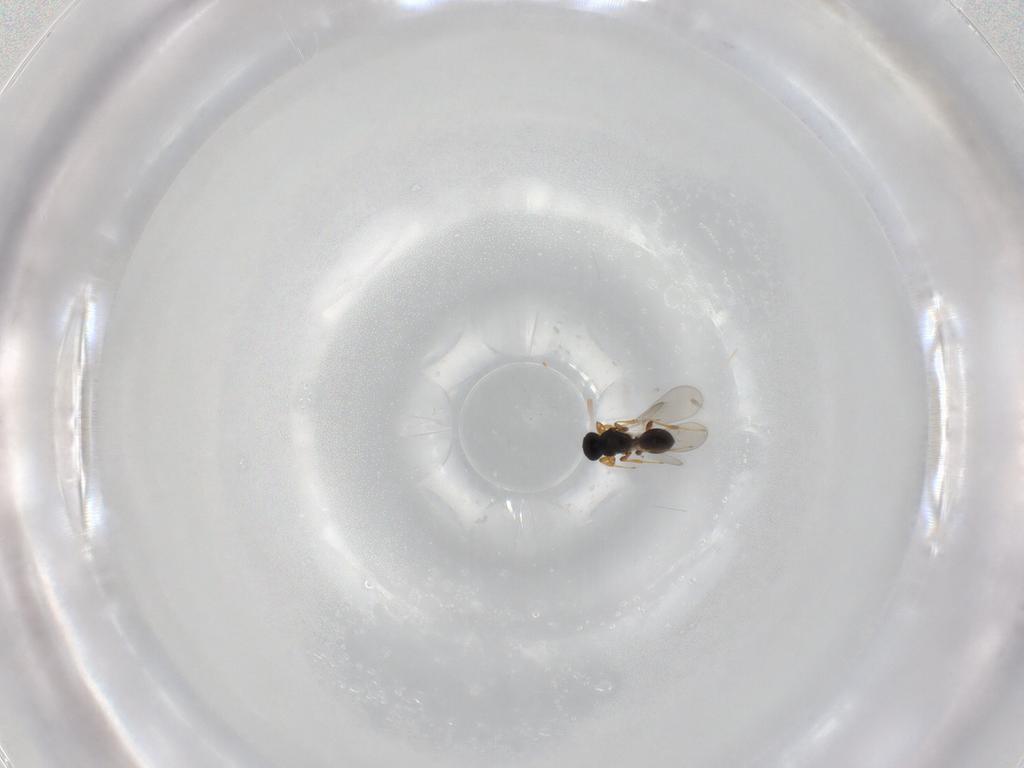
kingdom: Animalia
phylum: Arthropoda
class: Insecta
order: Hymenoptera
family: Platygastridae
